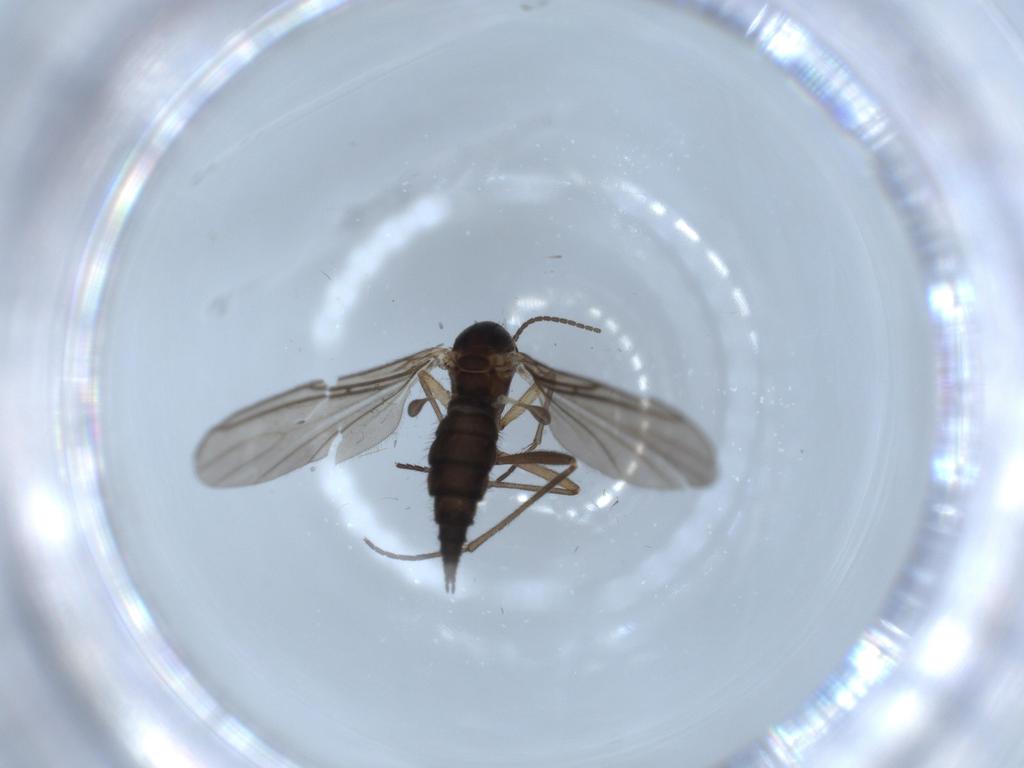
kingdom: Animalia
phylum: Arthropoda
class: Insecta
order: Diptera
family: Sciaridae
